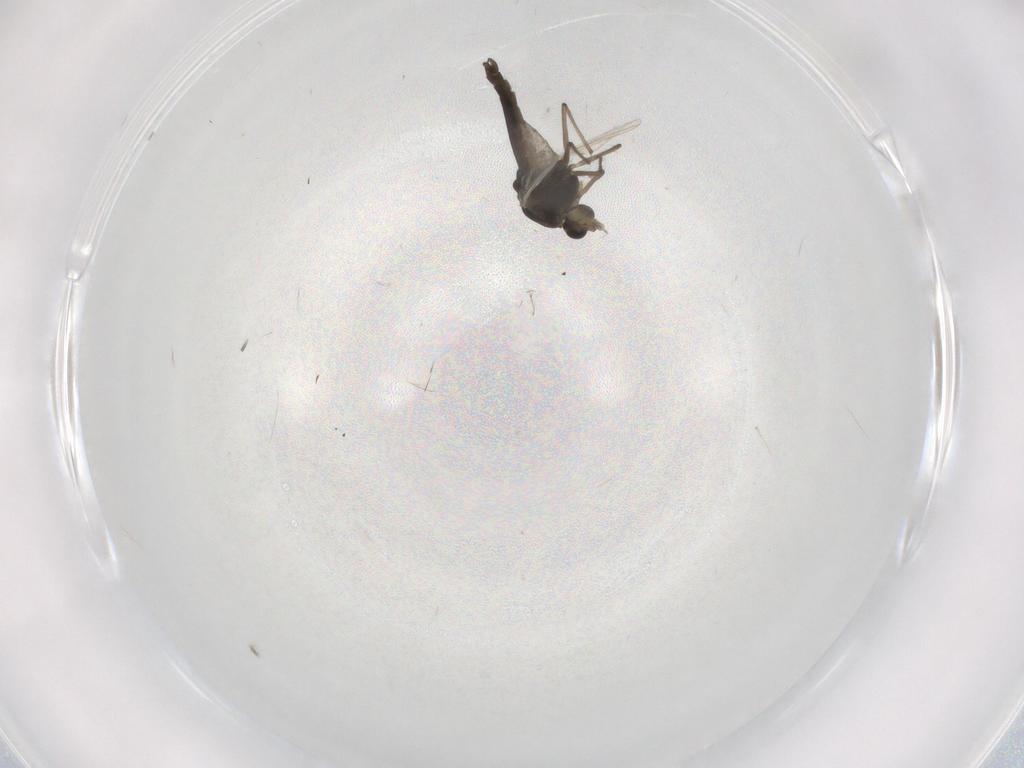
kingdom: Animalia
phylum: Arthropoda
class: Insecta
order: Diptera
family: Chironomidae
